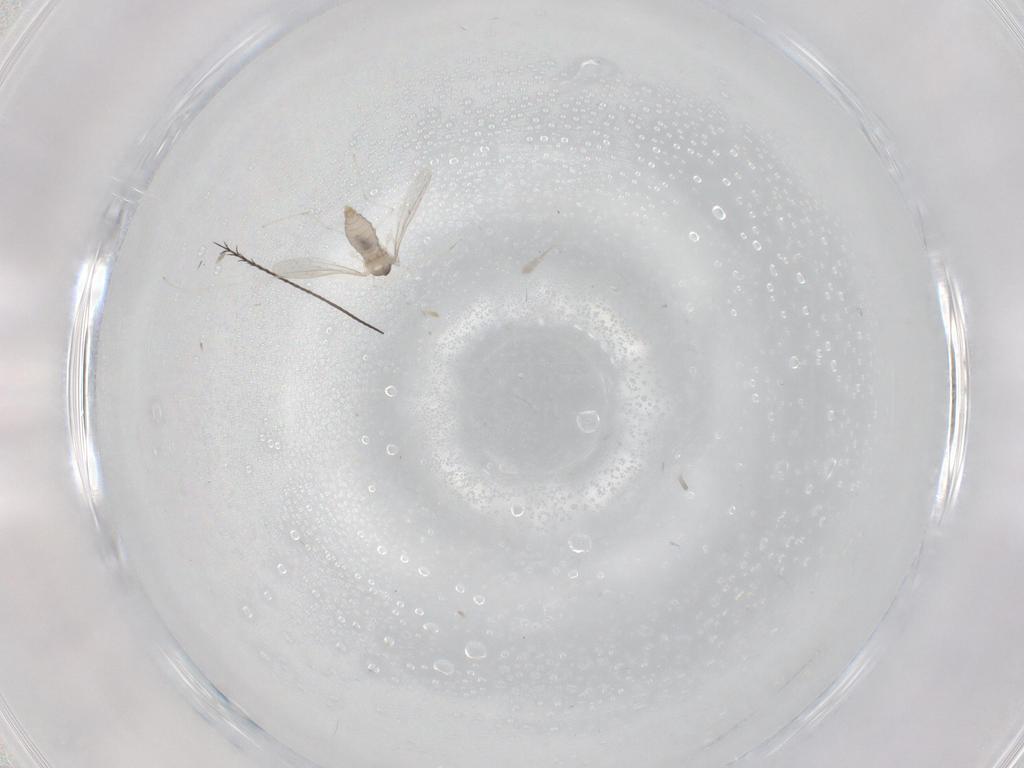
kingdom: Animalia
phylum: Arthropoda
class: Insecta
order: Diptera
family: Cecidomyiidae
